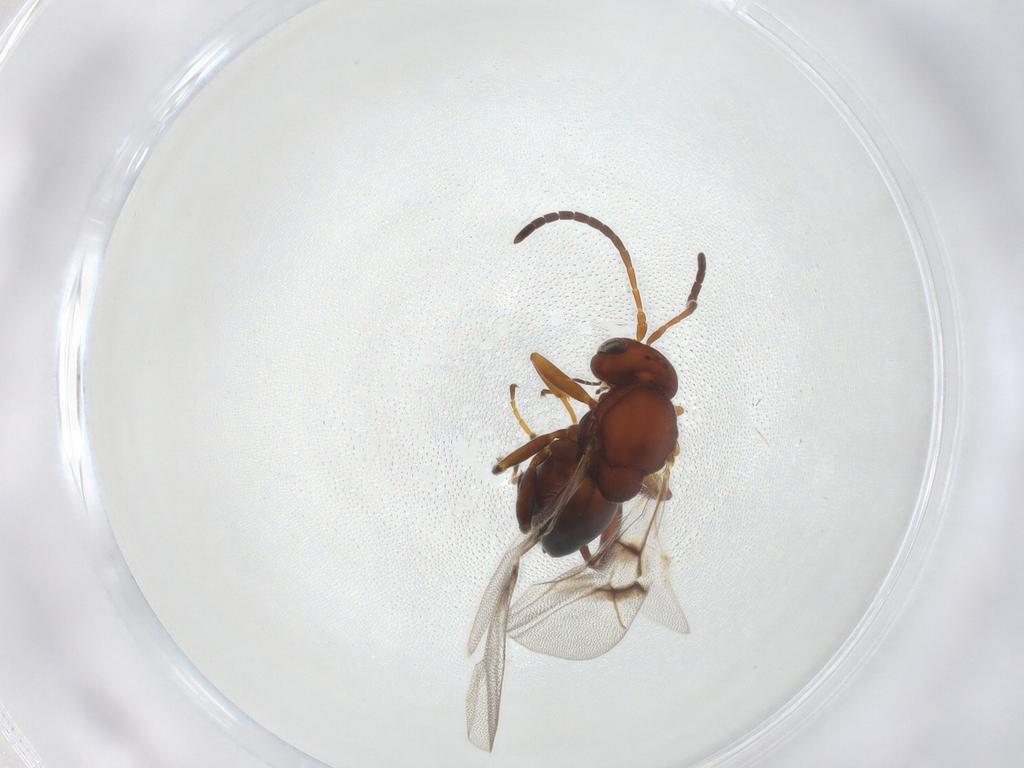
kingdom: Animalia
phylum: Arthropoda
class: Insecta
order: Hymenoptera
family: Cynipidae
